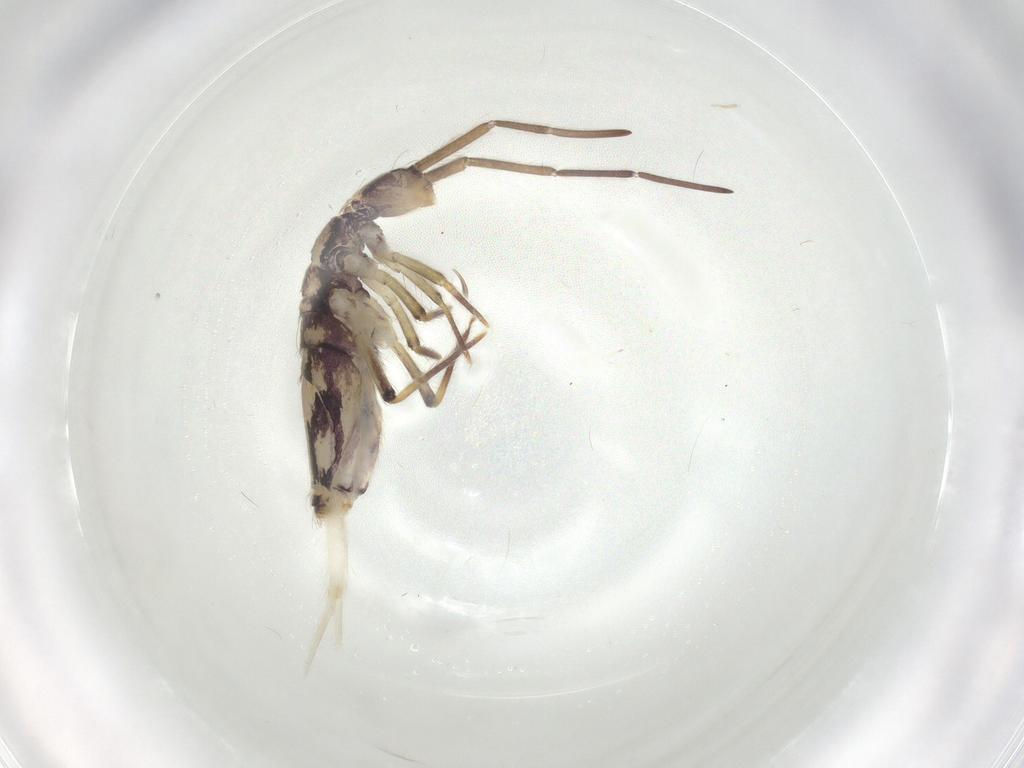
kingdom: Animalia
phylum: Arthropoda
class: Collembola
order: Entomobryomorpha
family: Entomobryidae
